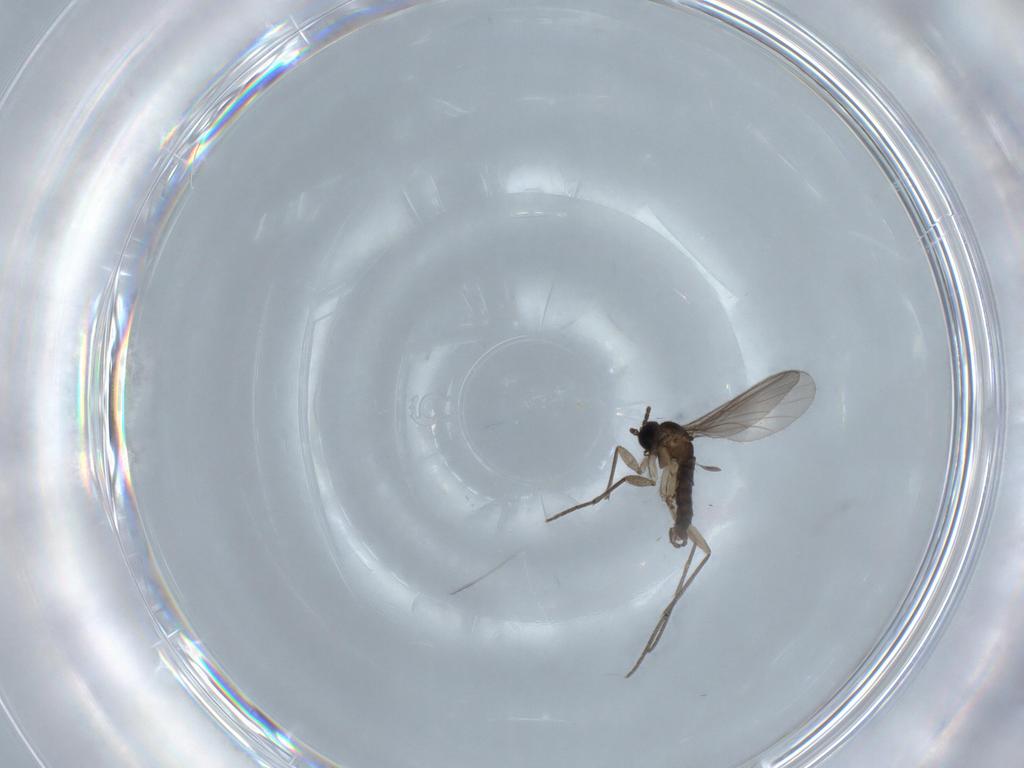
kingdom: Animalia
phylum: Arthropoda
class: Insecta
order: Diptera
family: Sciaridae
